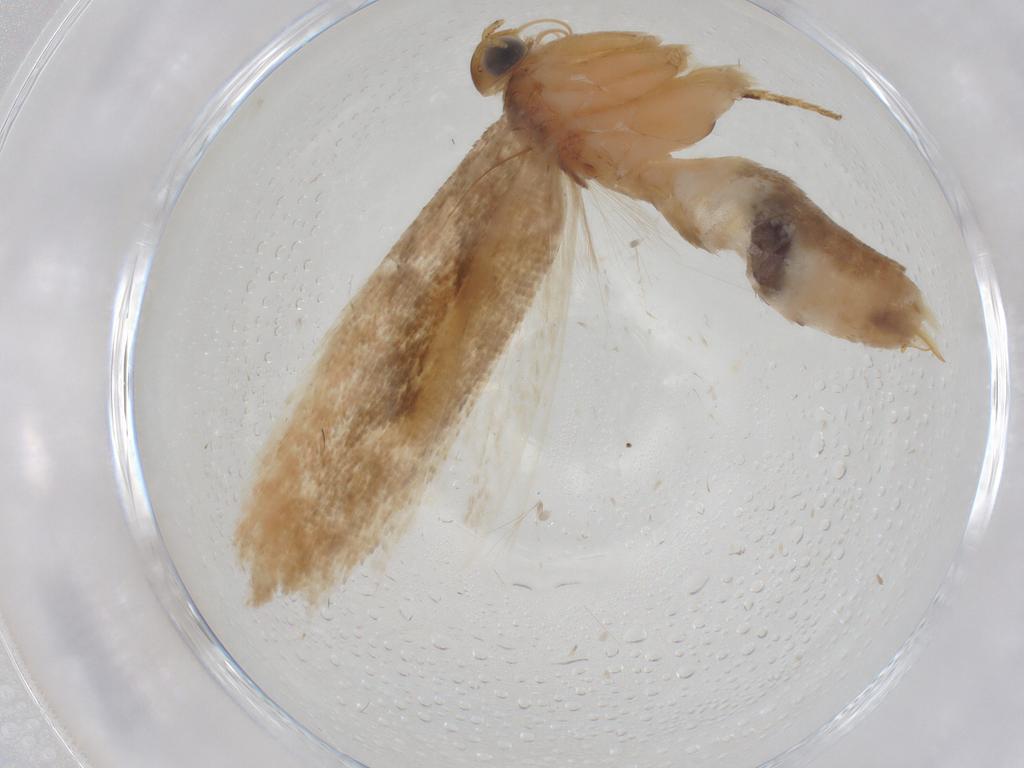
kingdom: Animalia
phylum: Arthropoda
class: Insecta
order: Lepidoptera
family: Gelechiidae
